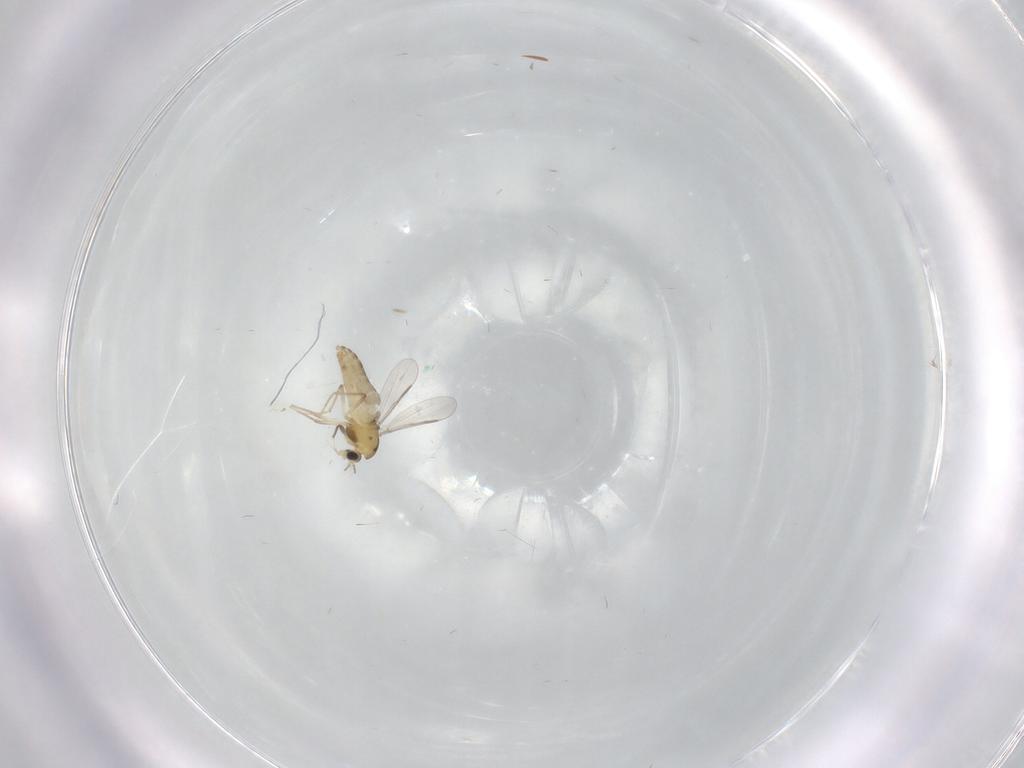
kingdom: Animalia
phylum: Arthropoda
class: Insecta
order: Diptera
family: Chironomidae
